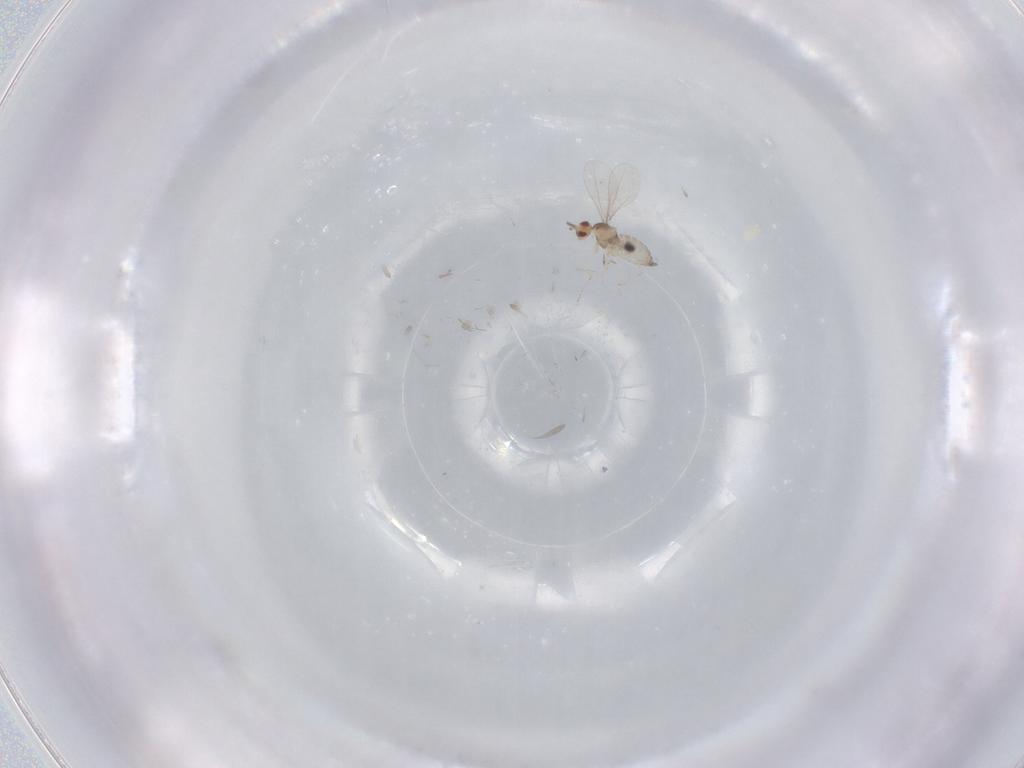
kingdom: Animalia
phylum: Arthropoda
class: Insecta
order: Diptera
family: Cecidomyiidae
